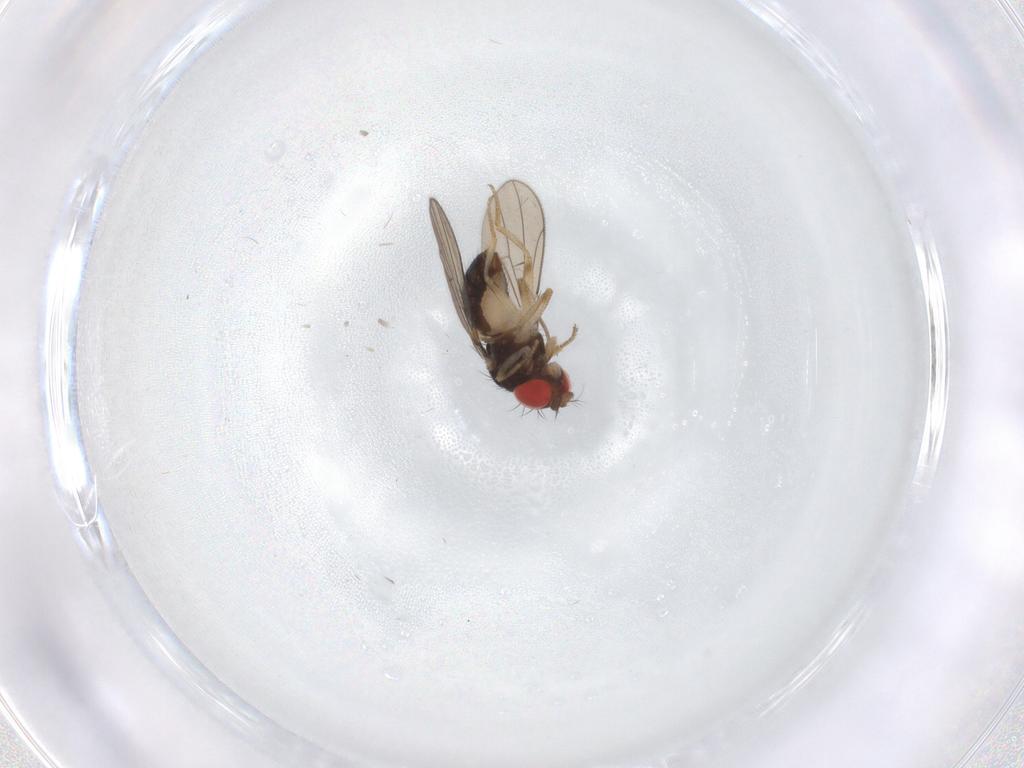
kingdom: Animalia
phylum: Arthropoda
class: Insecta
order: Diptera
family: Drosophilidae
